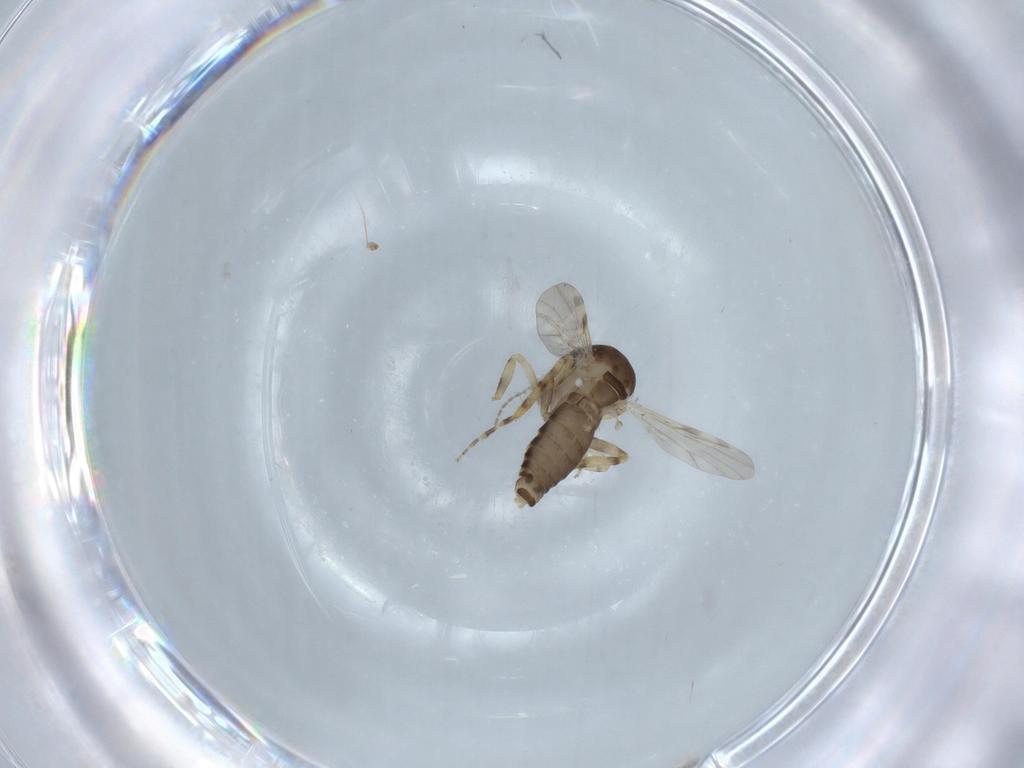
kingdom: Animalia
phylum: Arthropoda
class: Insecta
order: Diptera
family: Ceratopogonidae
